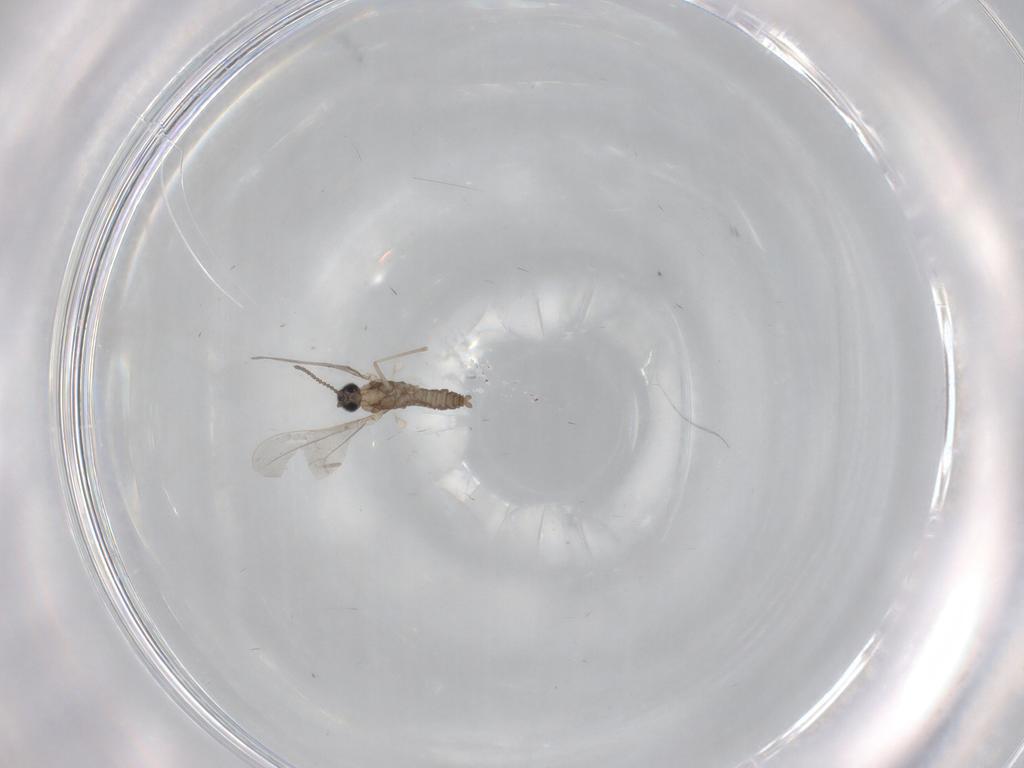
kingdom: Animalia
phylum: Arthropoda
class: Insecta
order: Diptera
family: Cecidomyiidae
